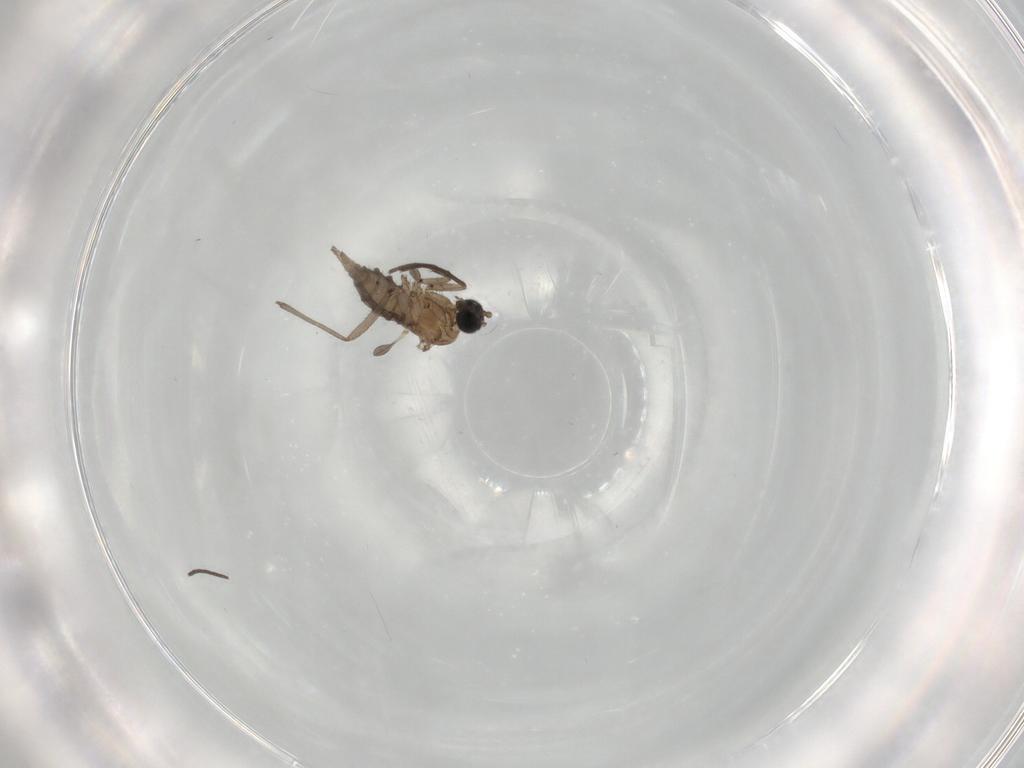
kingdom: Animalia
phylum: Arthropoda
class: Insecta
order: Diptera
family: Sciaridae
